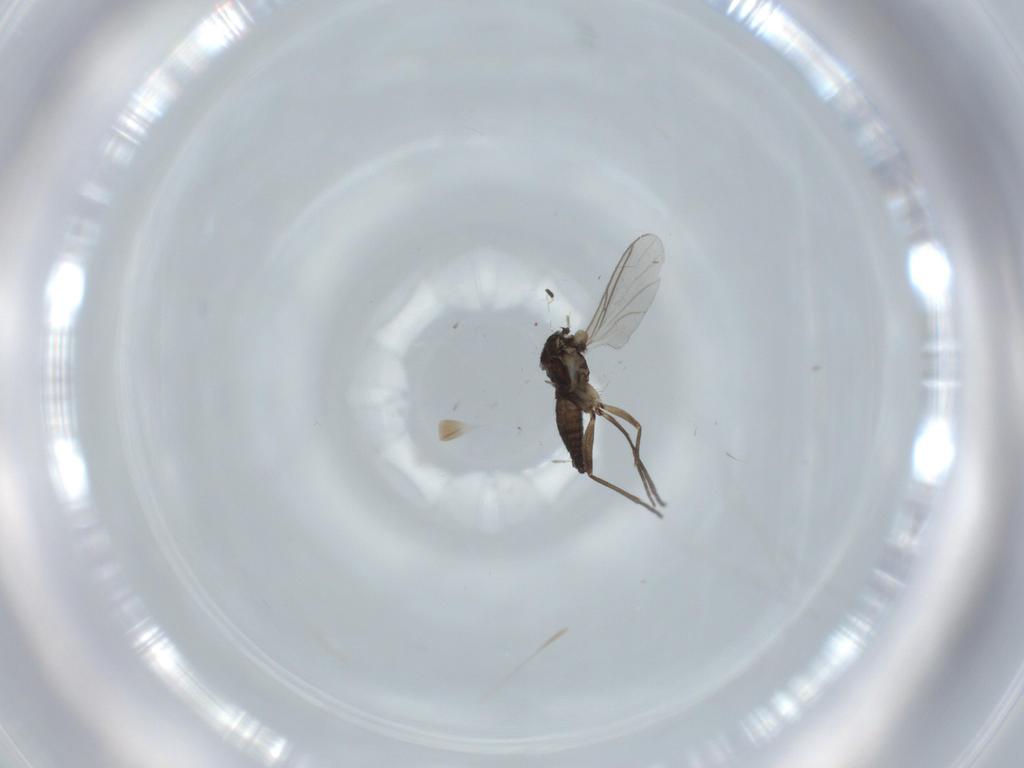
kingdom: Animalia
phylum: Arthropoda
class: Insecta
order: Diptera
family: Sciaridae
